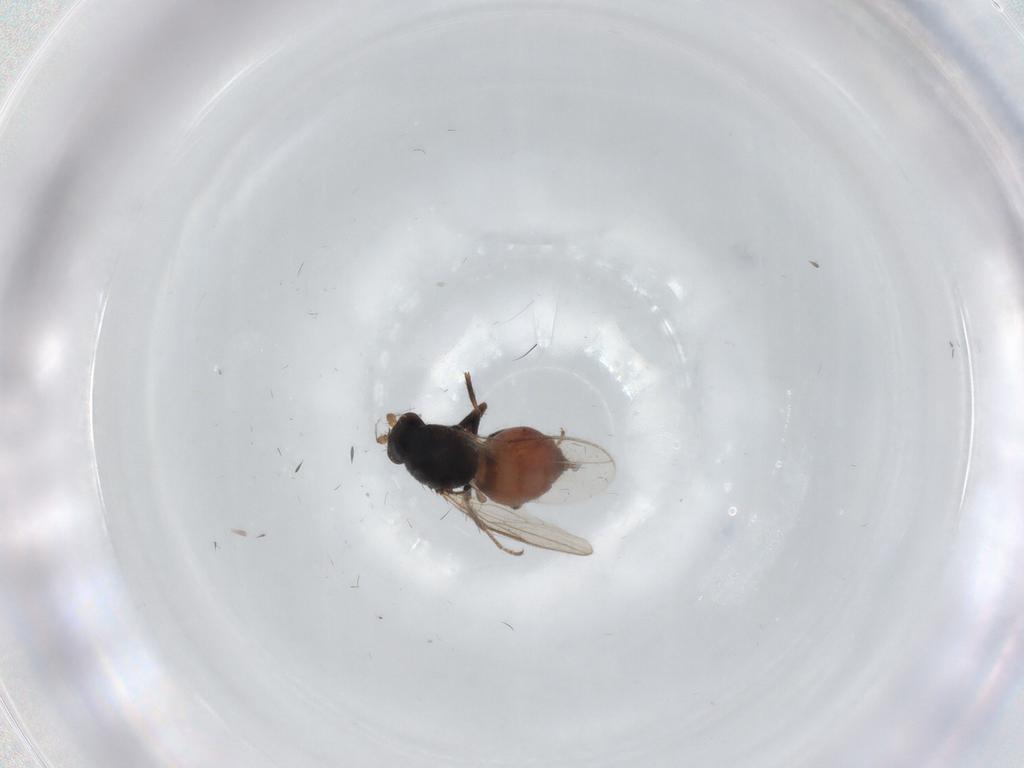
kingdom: Animalia
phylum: Arthropoda
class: Insecta
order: Diptera
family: Sphaeroceridae
